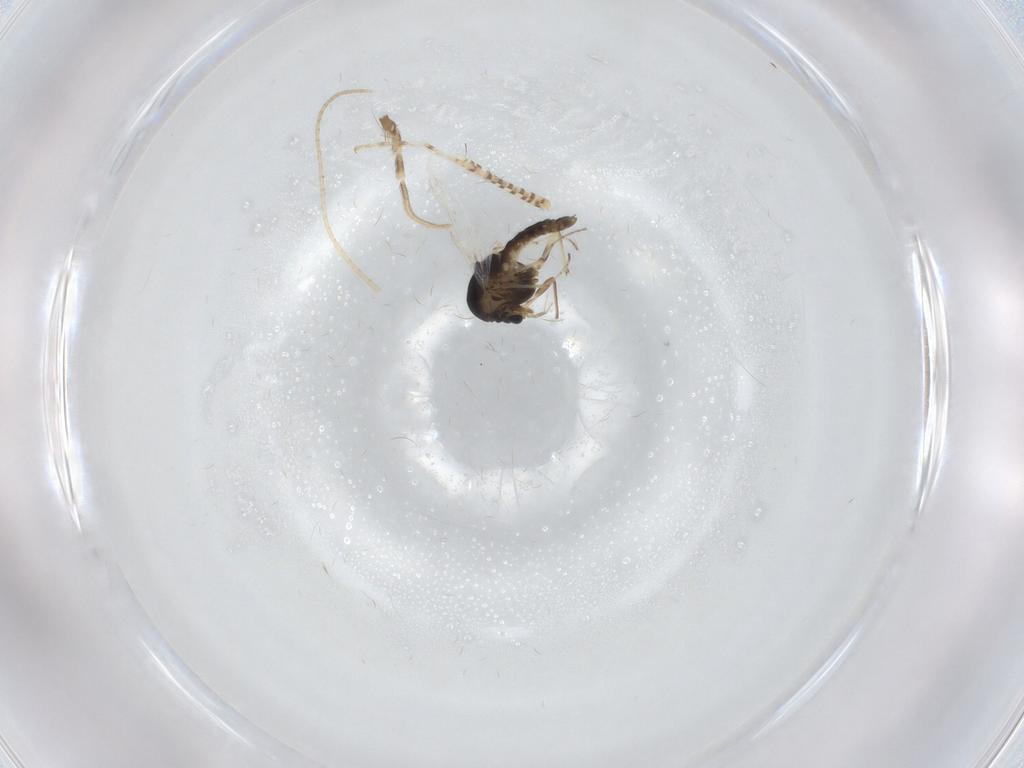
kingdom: Animalia
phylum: Arthropoda
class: Insecta
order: Diptera
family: Chironomidae
